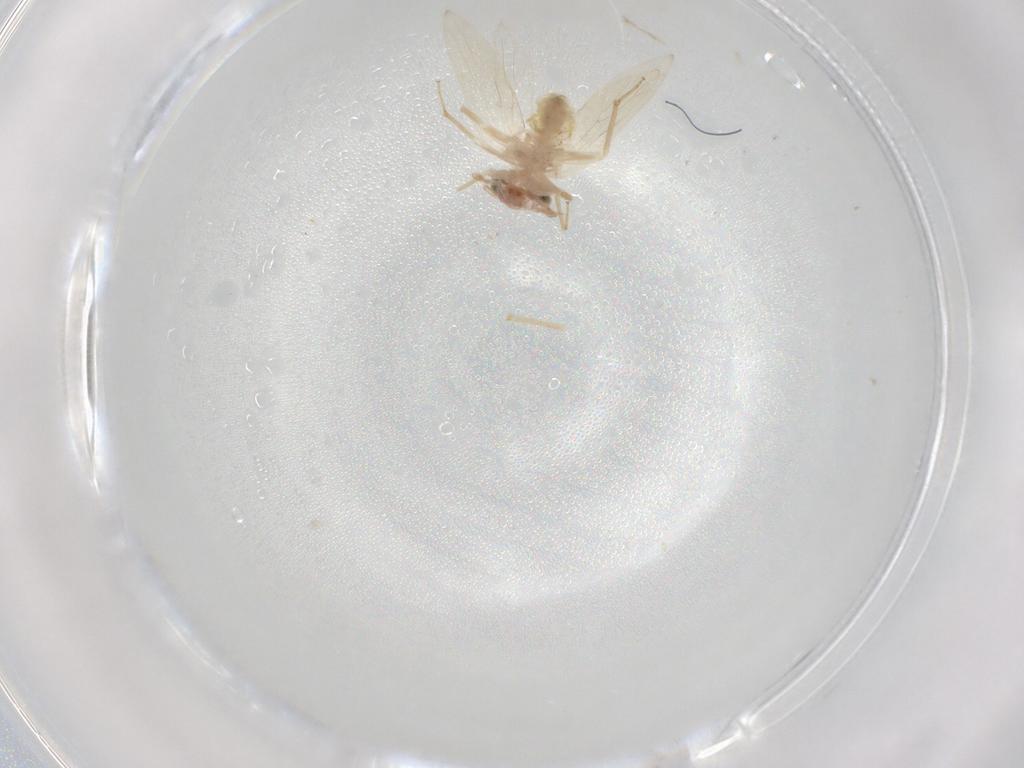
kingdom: Animalia
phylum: Arthropoda
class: Insecta
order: Psocodea
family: Lepidopsocidae
